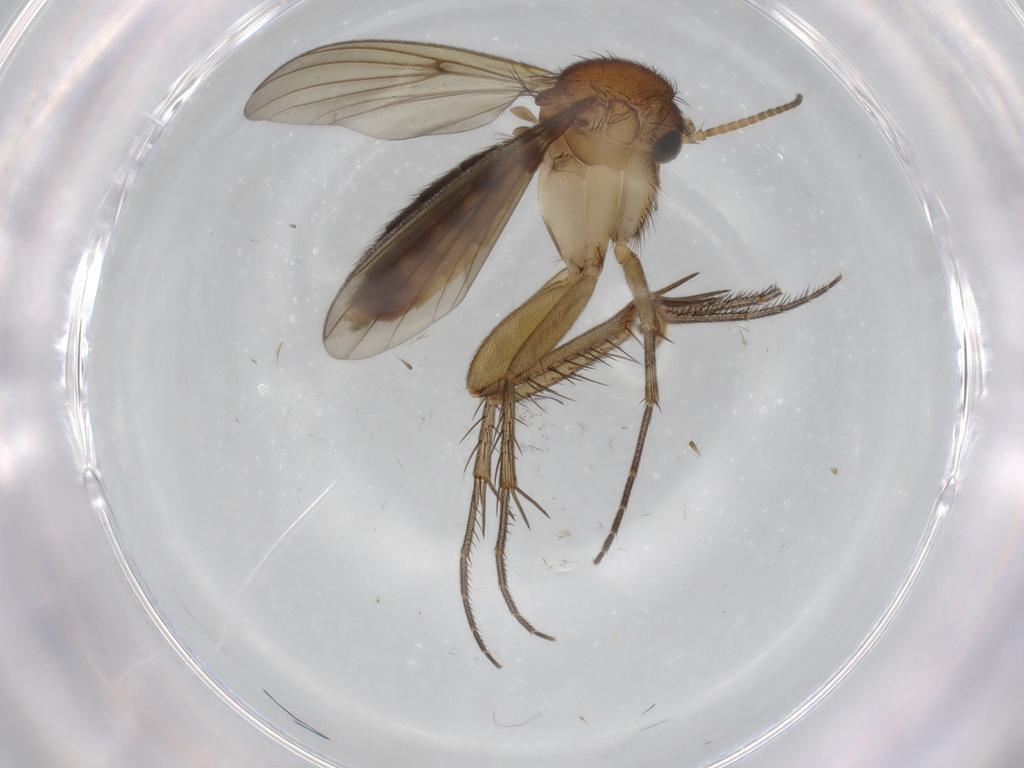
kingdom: Animalia
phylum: Arthropoda
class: Insecta
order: Diptera
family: Mycetophilidae
